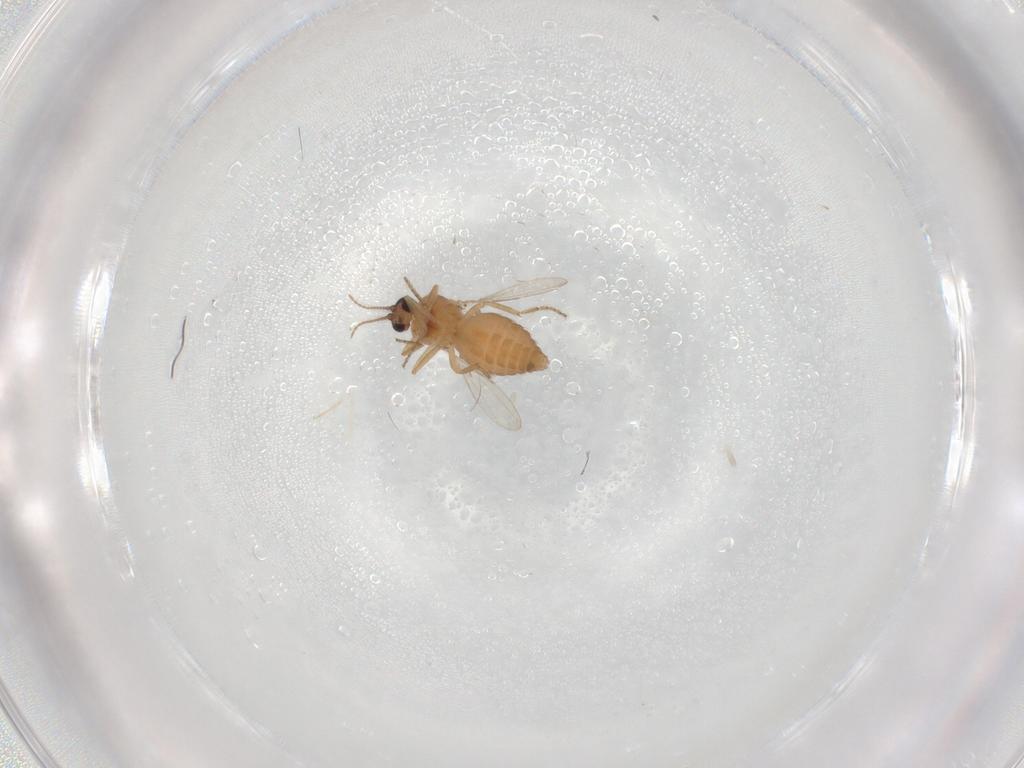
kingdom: Animalia
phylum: Arthropoda
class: Insecta
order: Diptera
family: Ceratopogonidae
